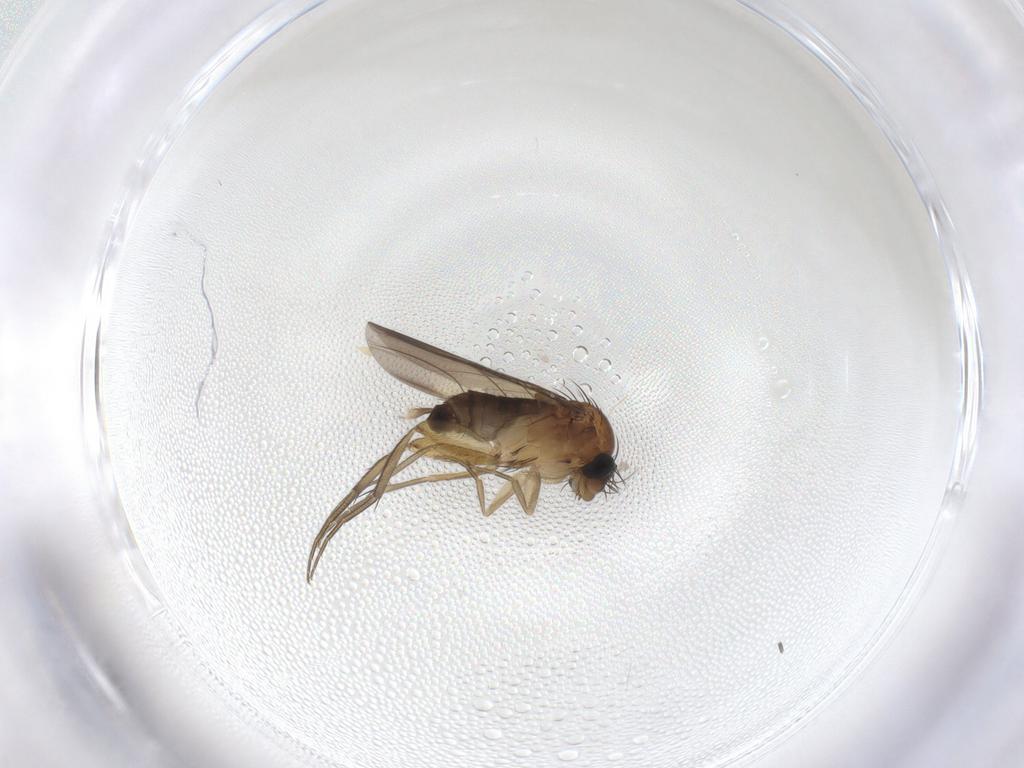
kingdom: Animalia
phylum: Arthropoda
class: Insecta
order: Diptera
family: Phoridae
